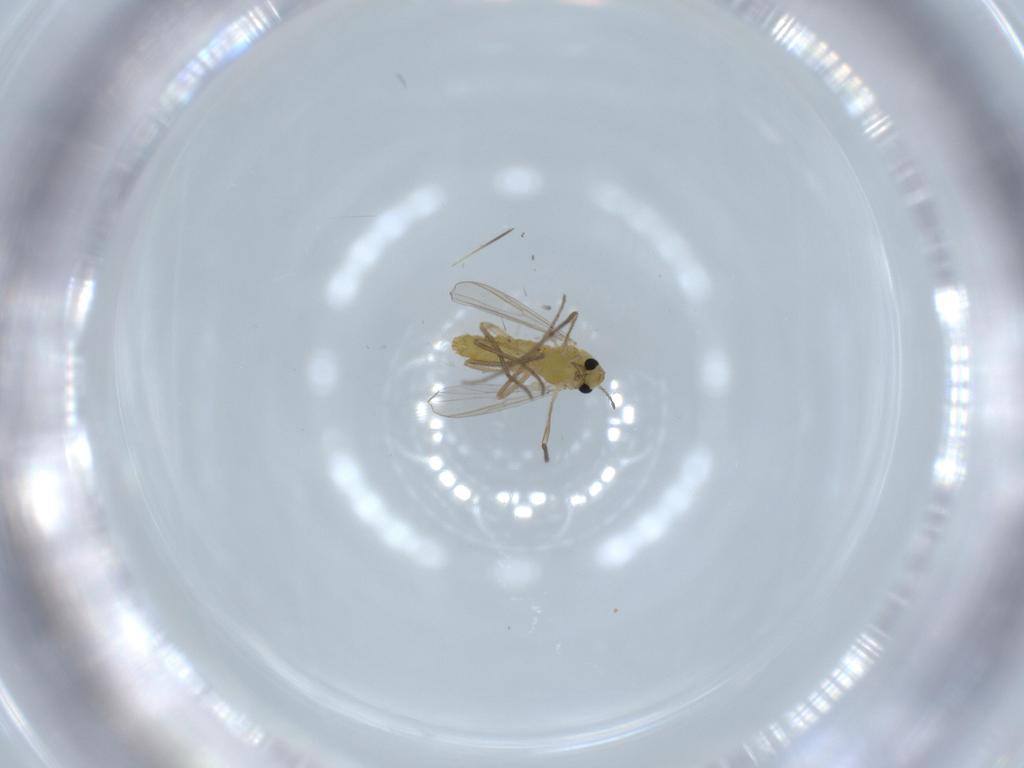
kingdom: Animalia
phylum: Arthropoda
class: Insecta
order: Diptera
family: Chironomidae
